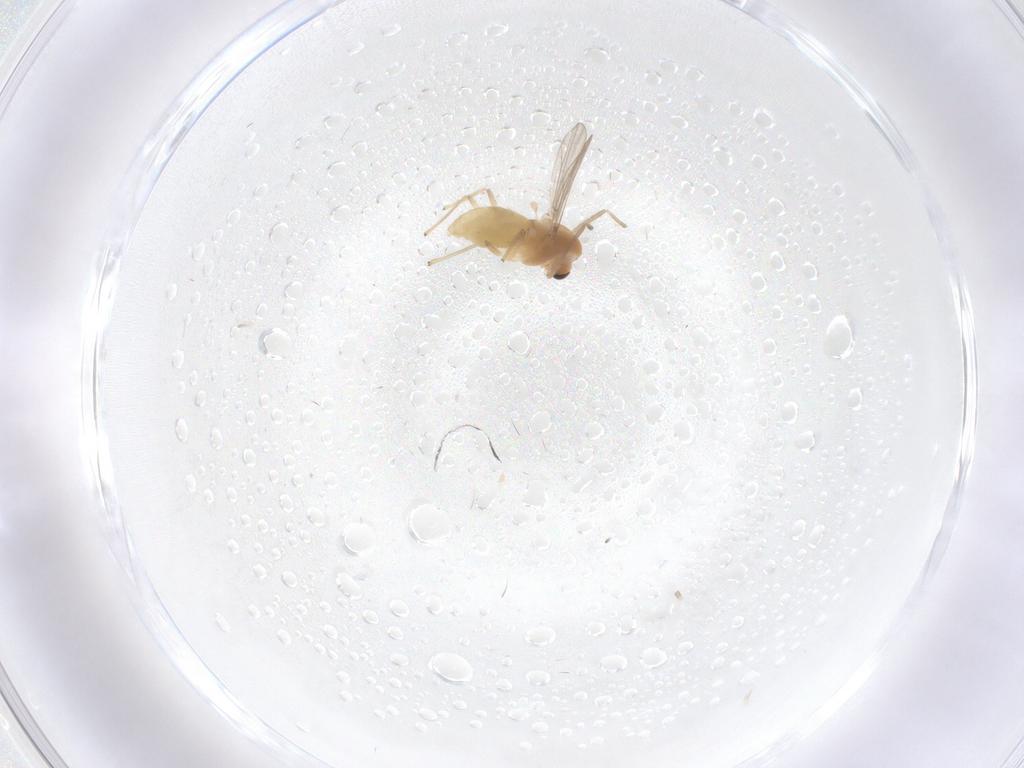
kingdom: Animalia
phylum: Arthropoda
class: Insecta
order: Diptera
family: Chironomidae
